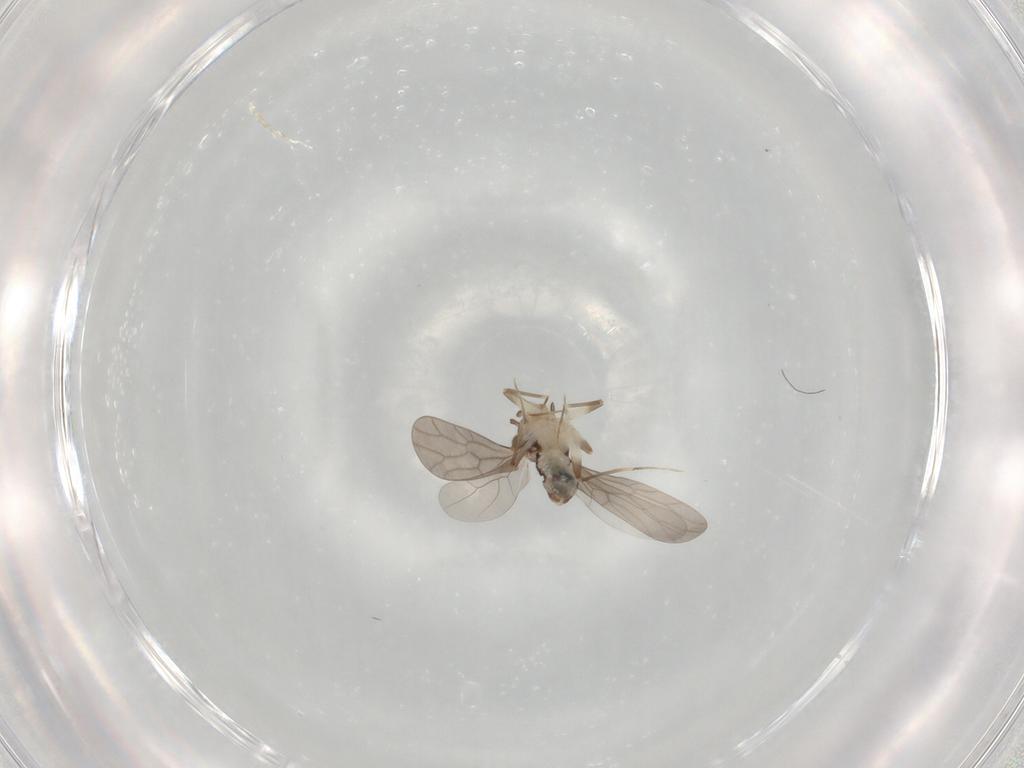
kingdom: Animalia
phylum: Arthropoda
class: Insecta
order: Psocodea
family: Lepidopsocidae
